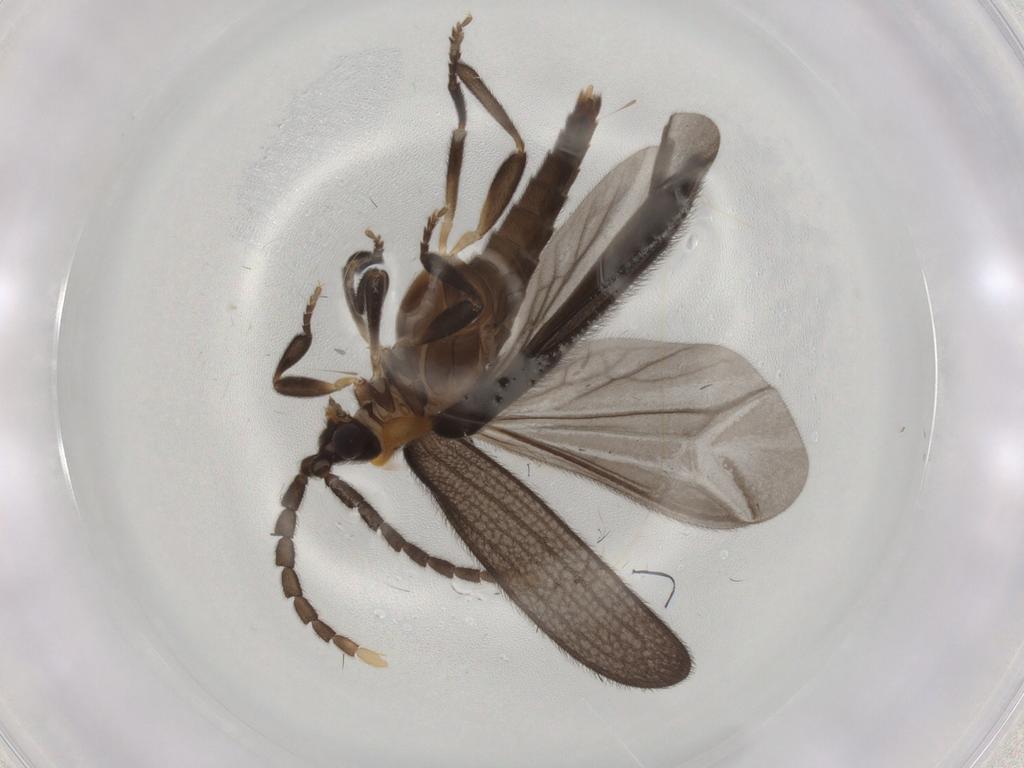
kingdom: Animalia
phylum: Arthropoda
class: Insecta
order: Coleoptera
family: Lycidae
